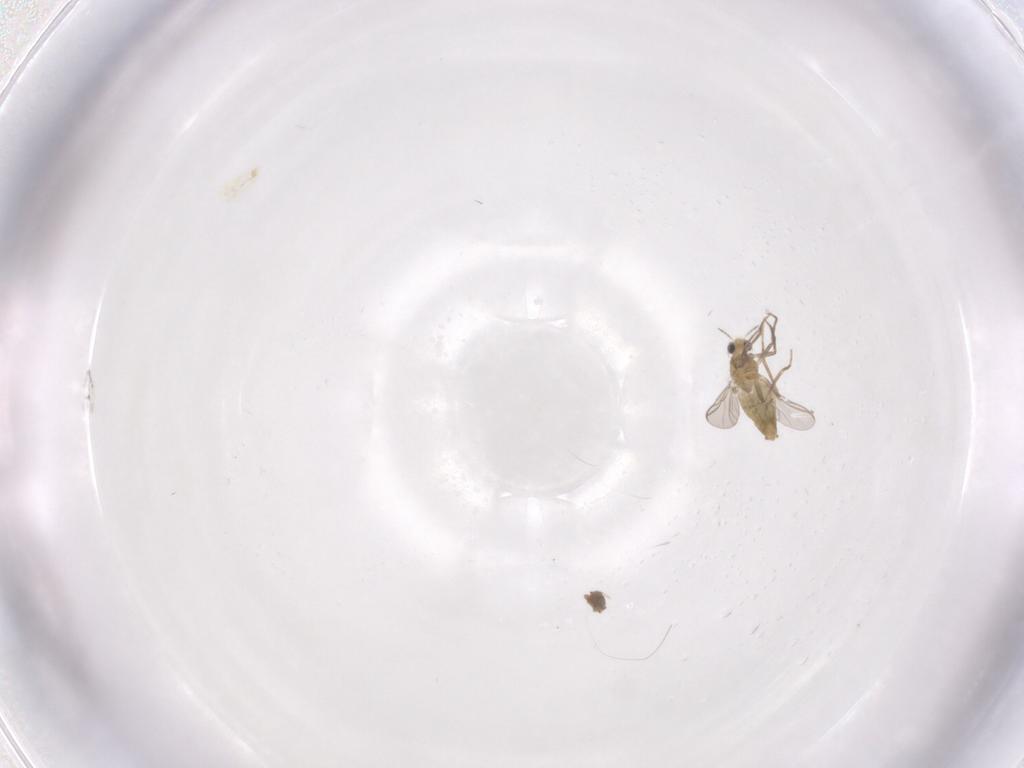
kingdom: Animalia
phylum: Arthropoda
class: Insecta
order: Diptera
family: Chironomidae
